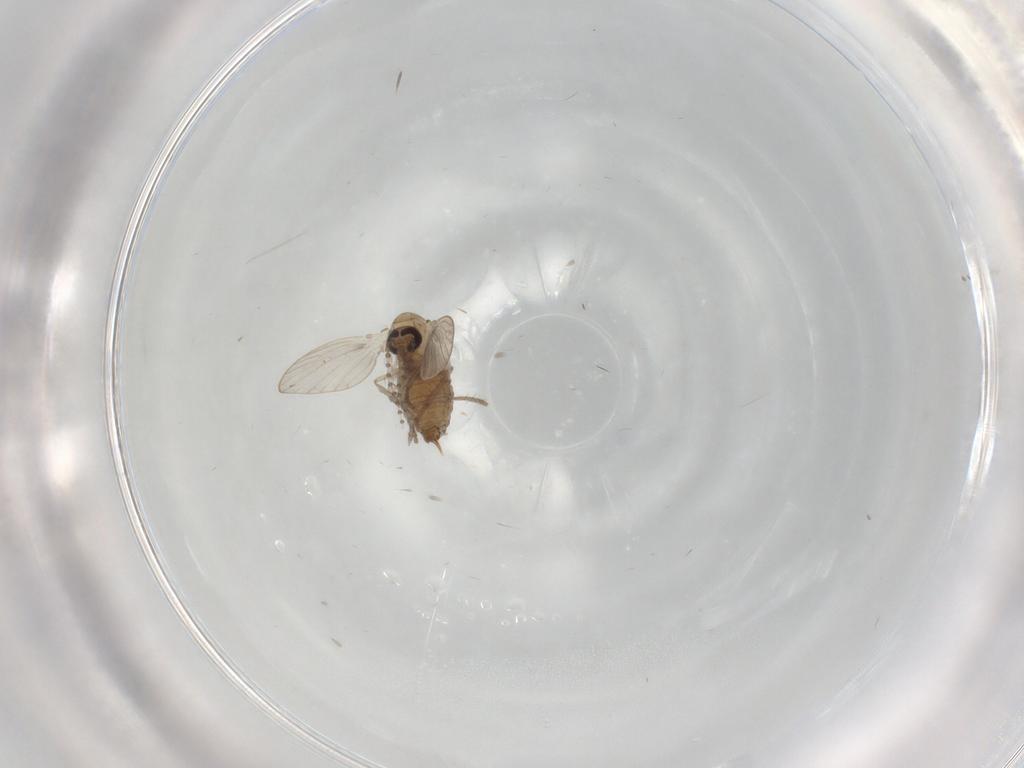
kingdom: Animalia
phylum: Arthropoda
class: Insecta
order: Diptera
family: Psychodidae
